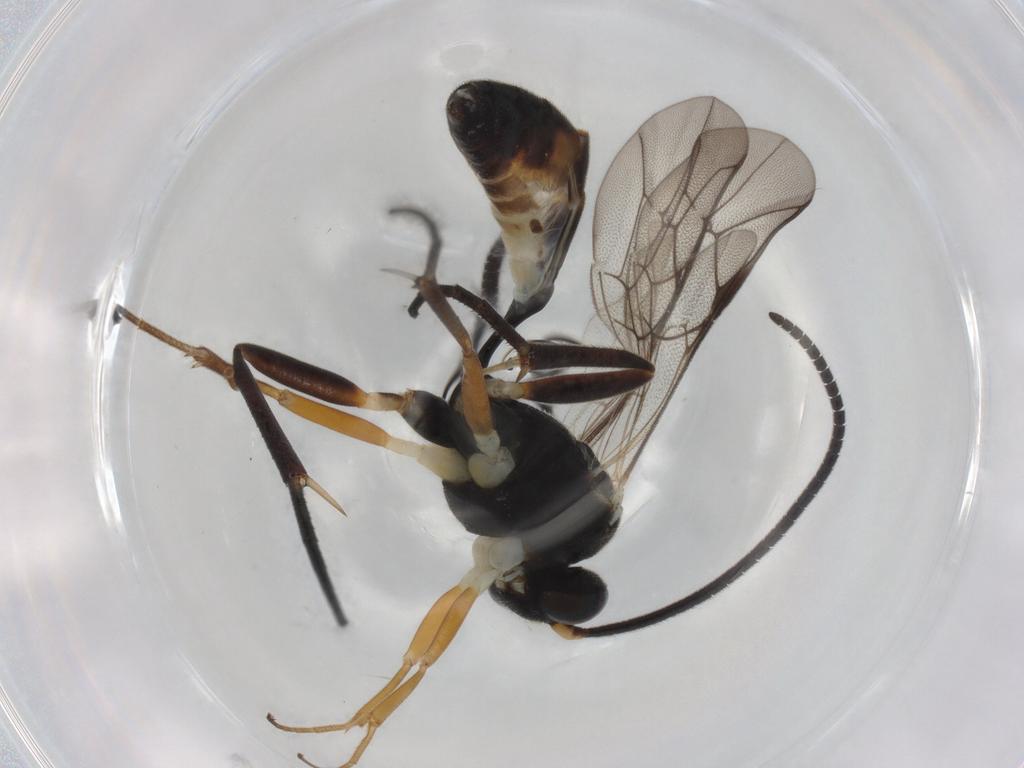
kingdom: Animalia
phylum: Arthropoda
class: Insecta
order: Hymenoptera
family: Ichneumonidae
